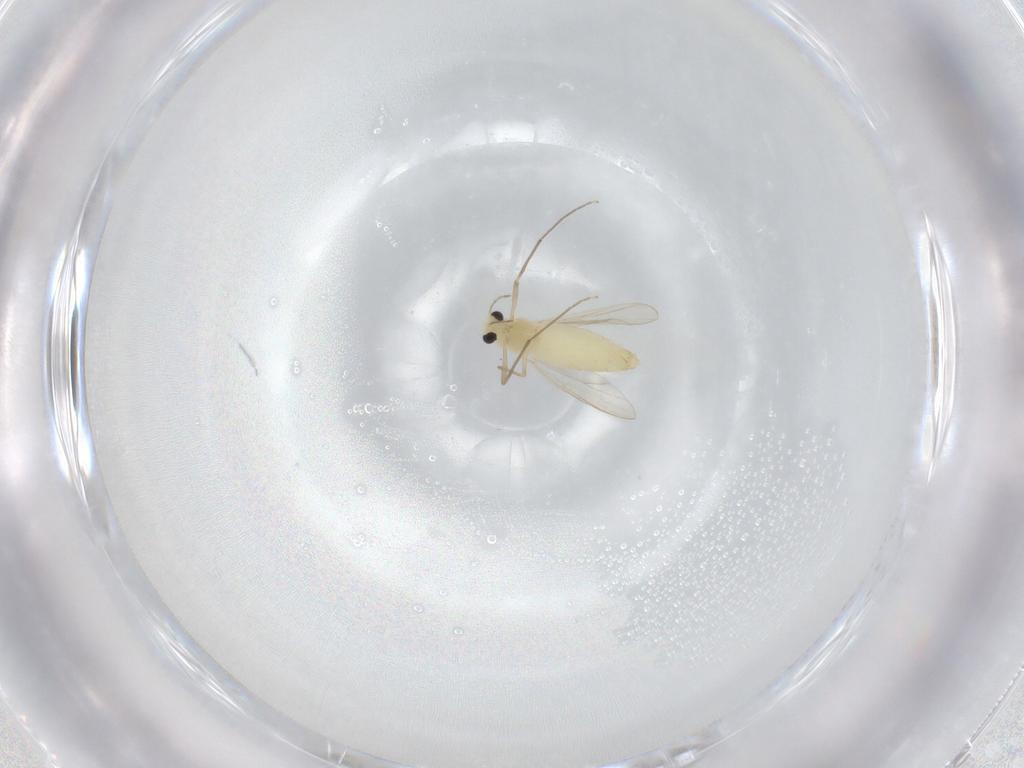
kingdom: Animalia
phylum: Arthropoda
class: Insecta
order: Diptera
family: Chironomidae
